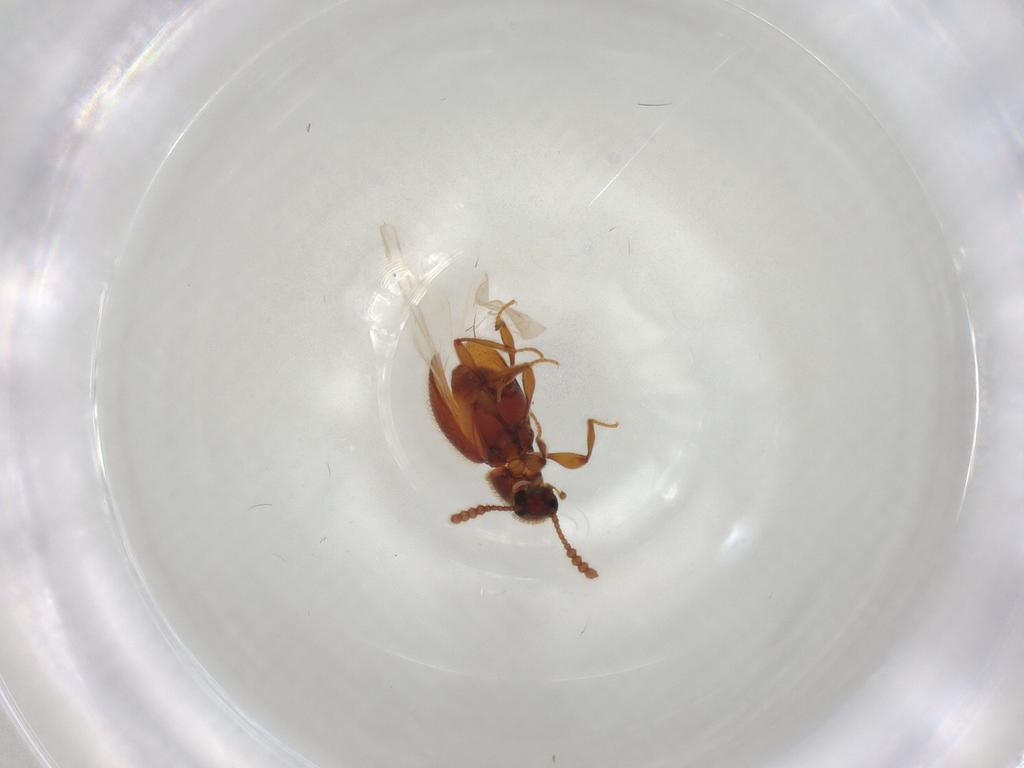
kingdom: Animalia
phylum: Arthropoda
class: Insecta
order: Coleoptera
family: Staphylinidae
